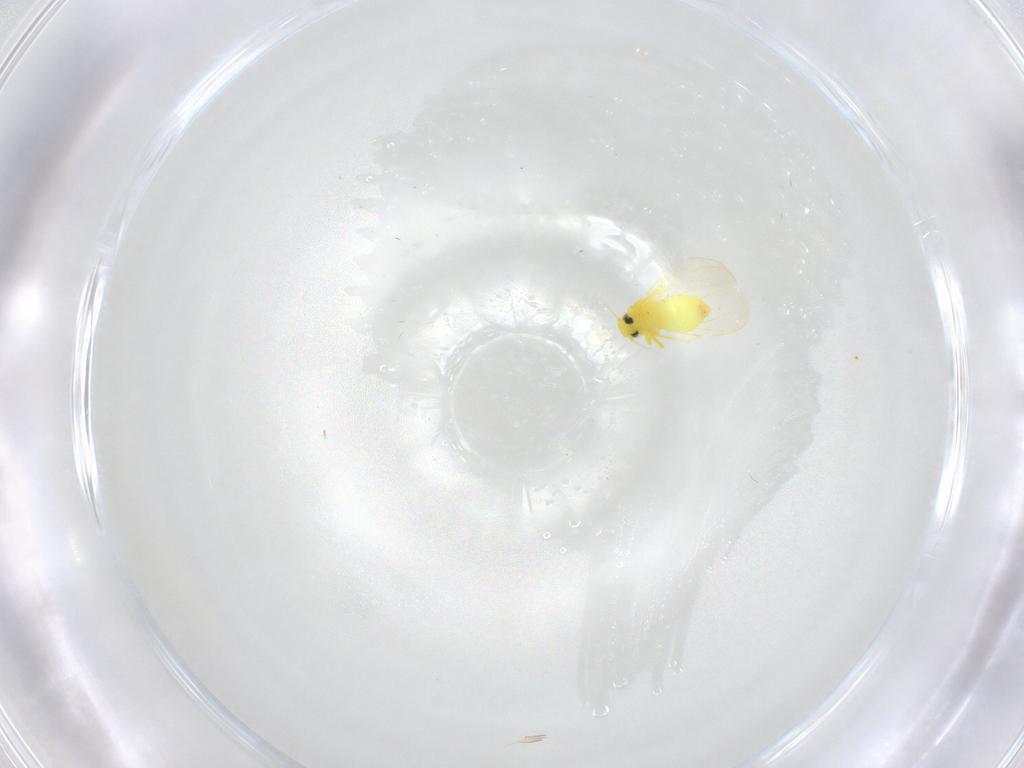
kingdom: Animalia
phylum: Arthropoda
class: Insecta
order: Hemiptera
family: Aleyrodidae
